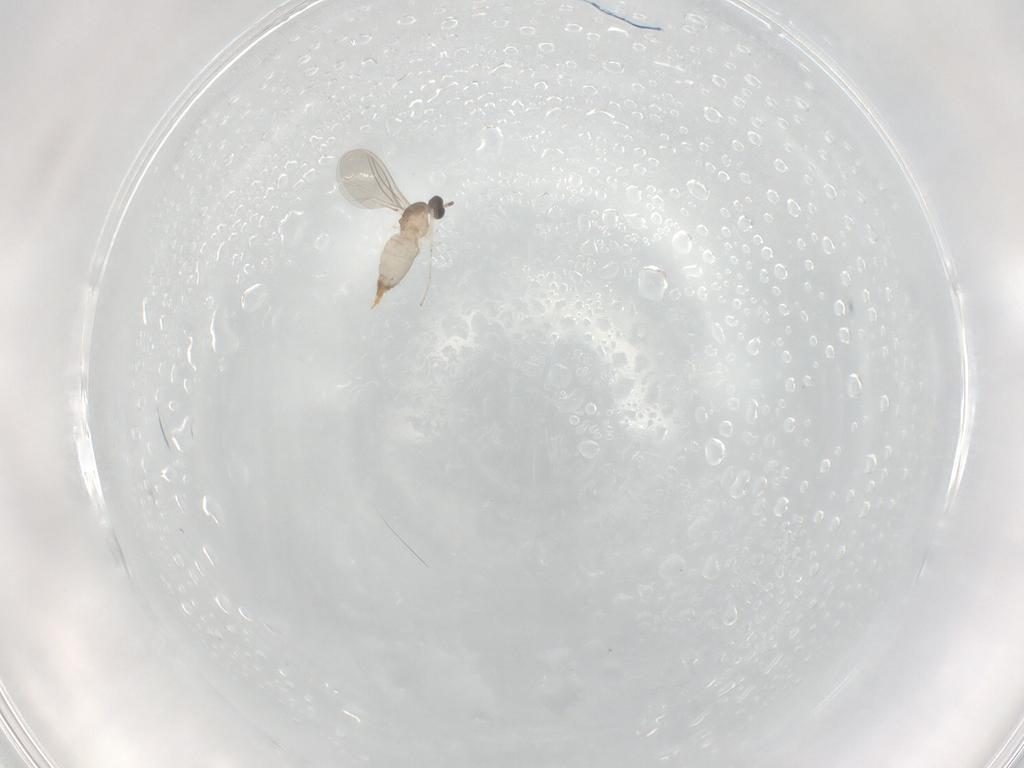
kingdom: Animalia
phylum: Arthropoda
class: Insecta
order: Diptera
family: Cecidomyiidae
